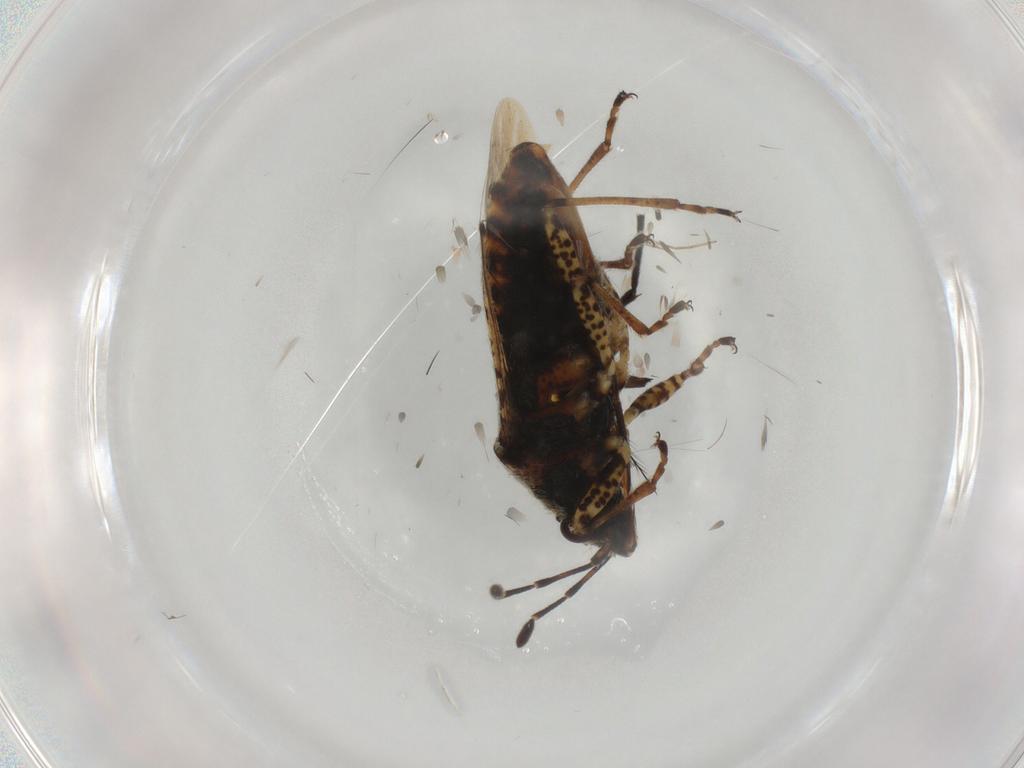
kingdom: Animalia
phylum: Arthropoda
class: Insecta
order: Hemiptera
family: Lygaeidae
